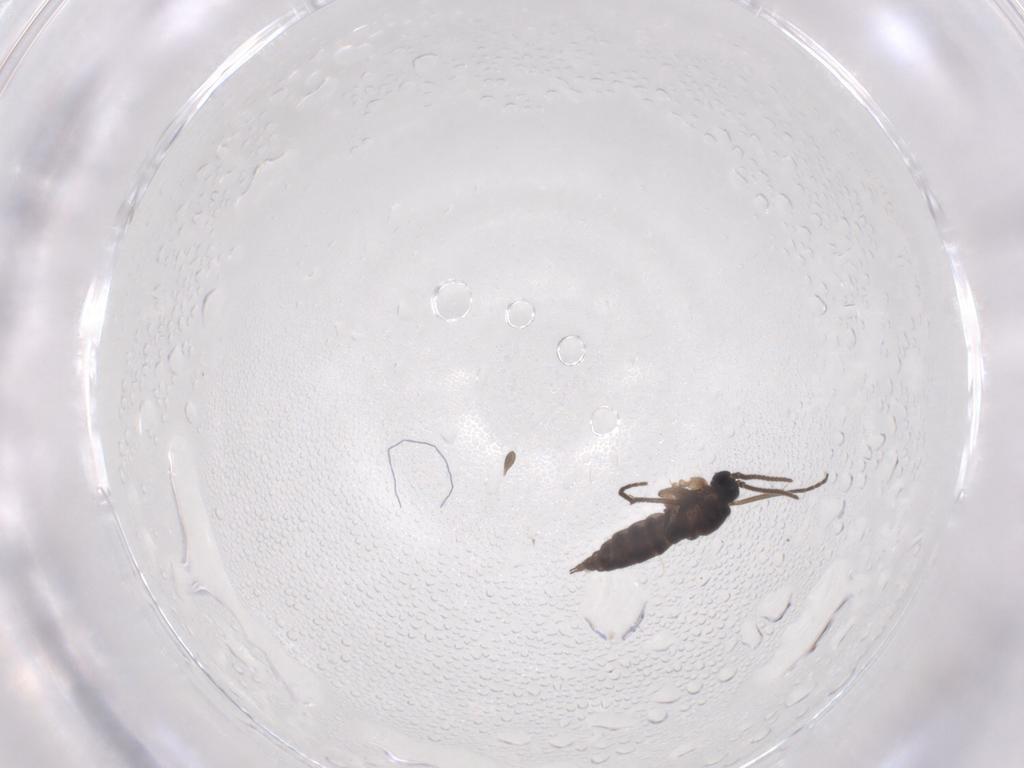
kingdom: Animalia
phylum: Arthropoda
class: Insecta
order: Diptera
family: Sciaridae
